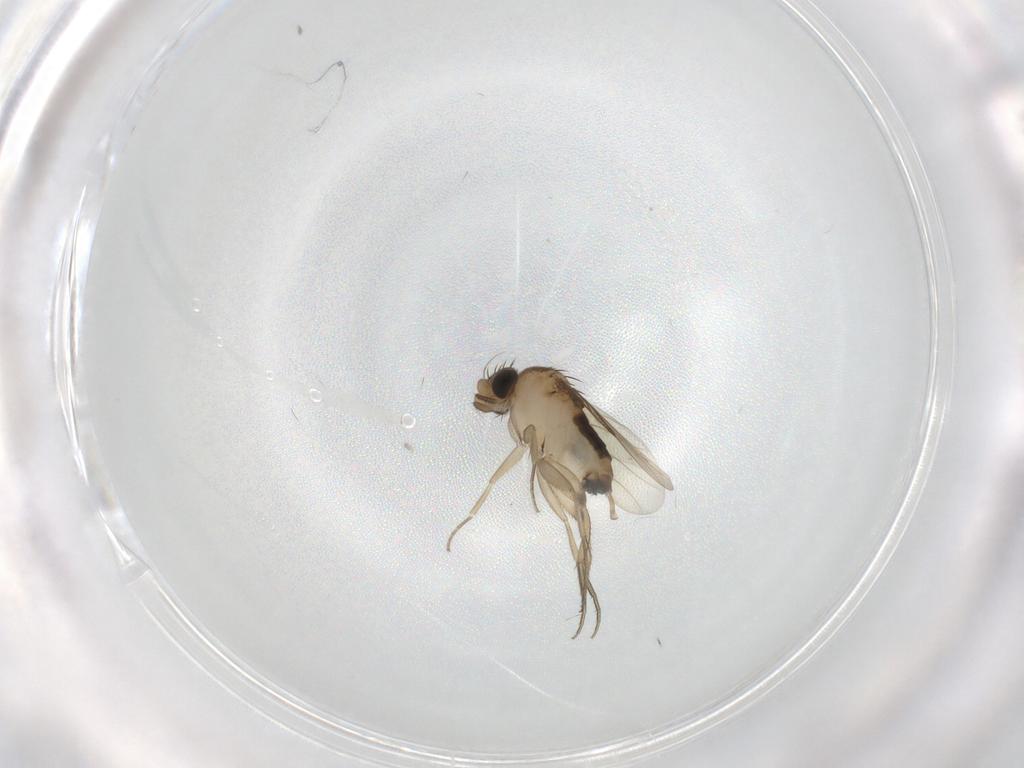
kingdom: Animalia
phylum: Arthropoda
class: Insecta
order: Diptera
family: Phoridae
